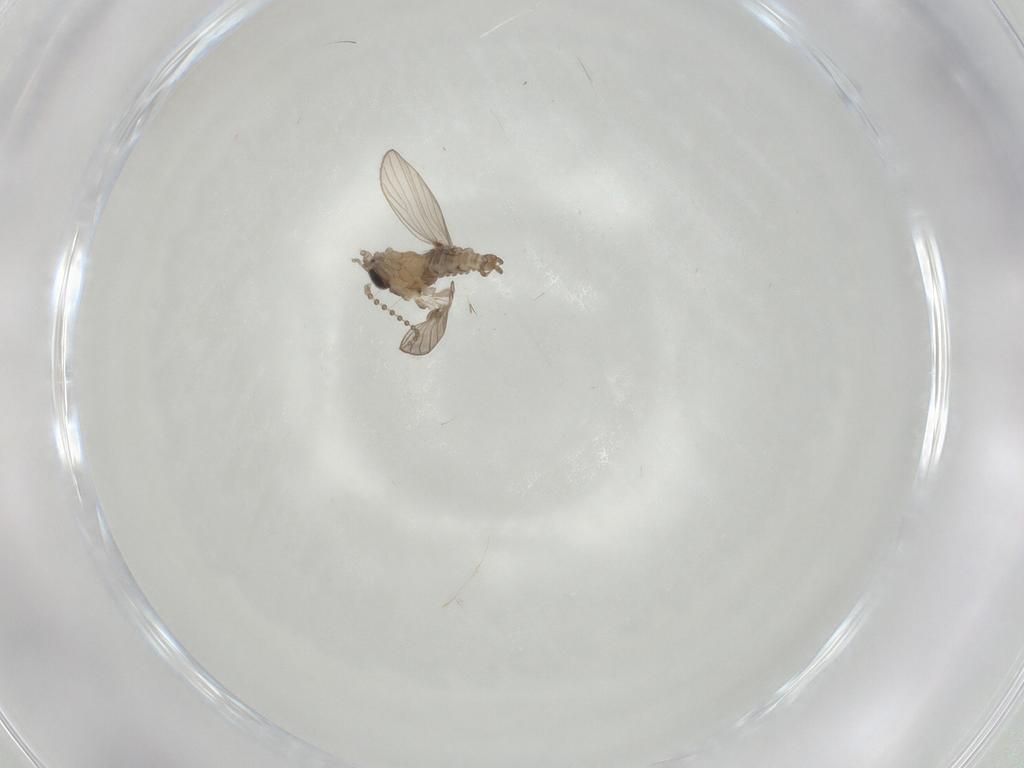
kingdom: Animalia
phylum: Arthropoda
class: Insecta
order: Diptera
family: Psychodidae
